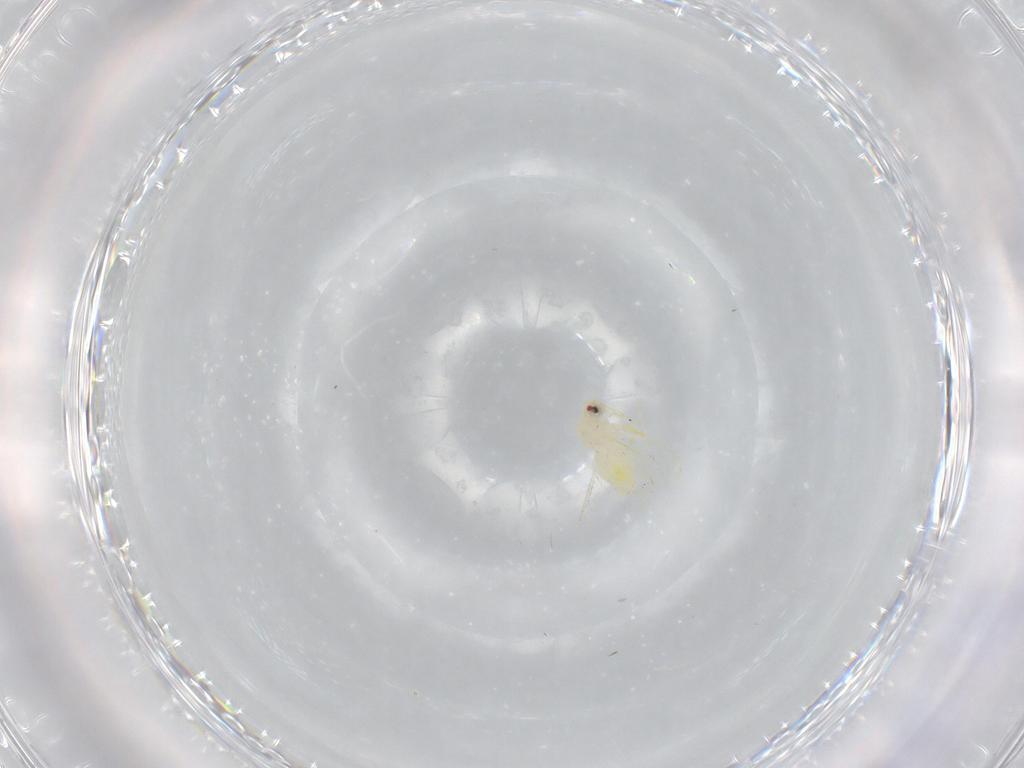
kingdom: Animalia
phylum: Arthropoda
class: Insecta
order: Hemiptera
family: Aleyrodidae
